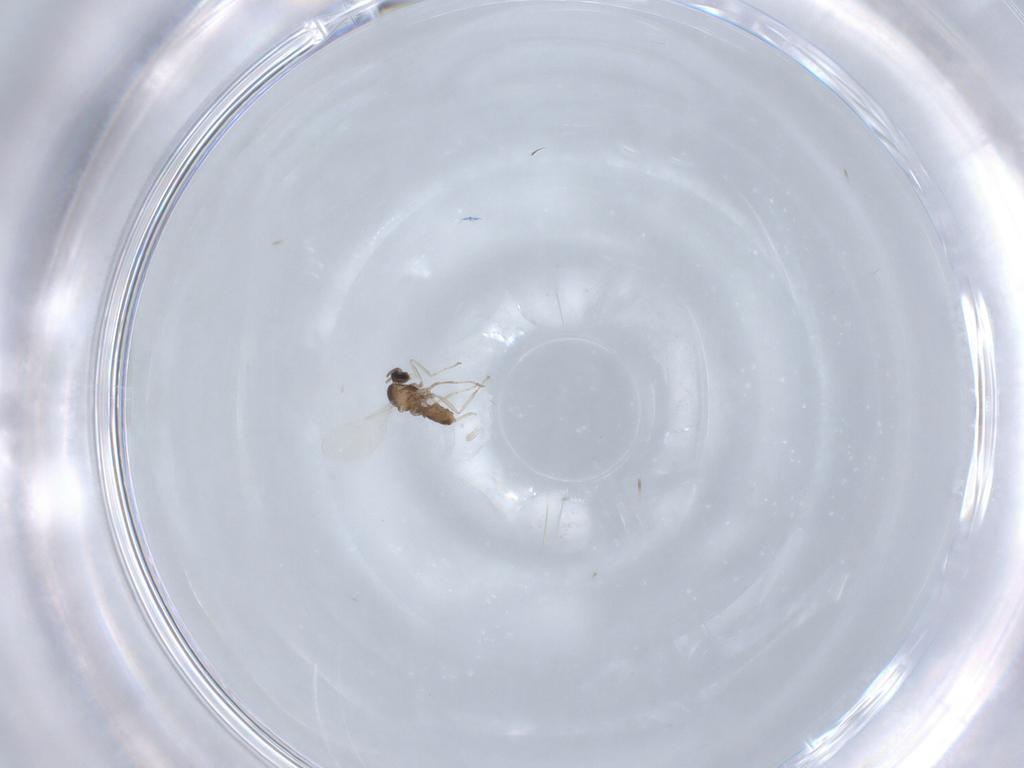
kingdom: Animalia
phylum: Arthropoda
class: Insecta
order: Diptera
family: Cecidomyiidae
